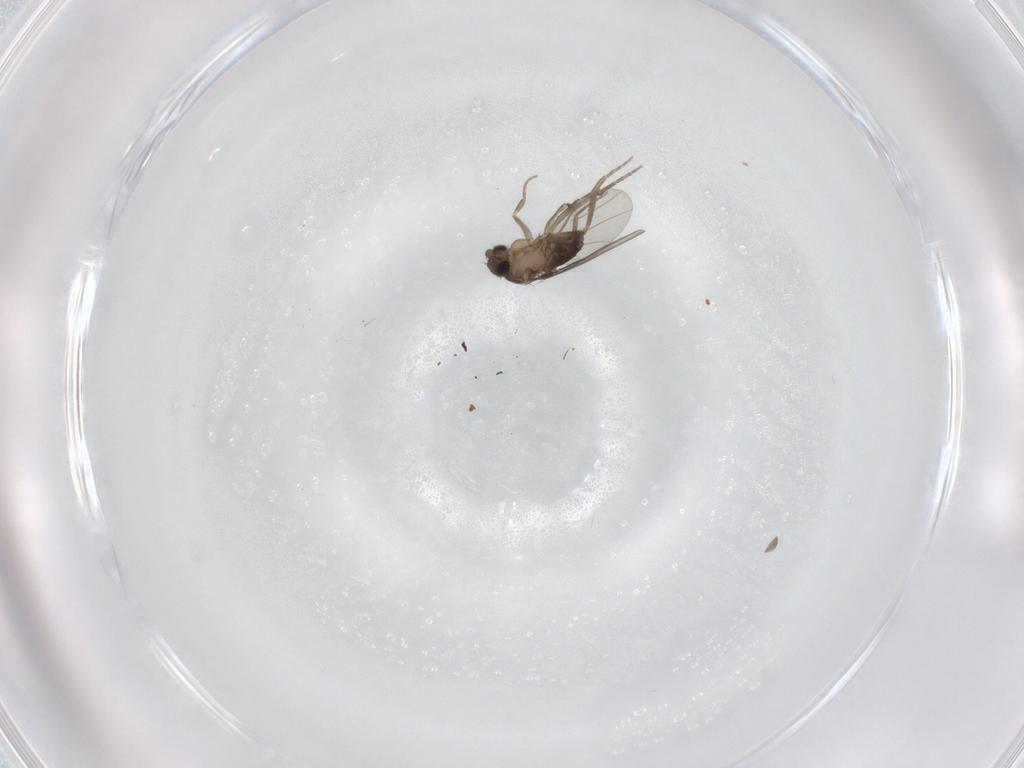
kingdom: Animalia
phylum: Arthropoda
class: Insecta
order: Diptera
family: Phoridae
